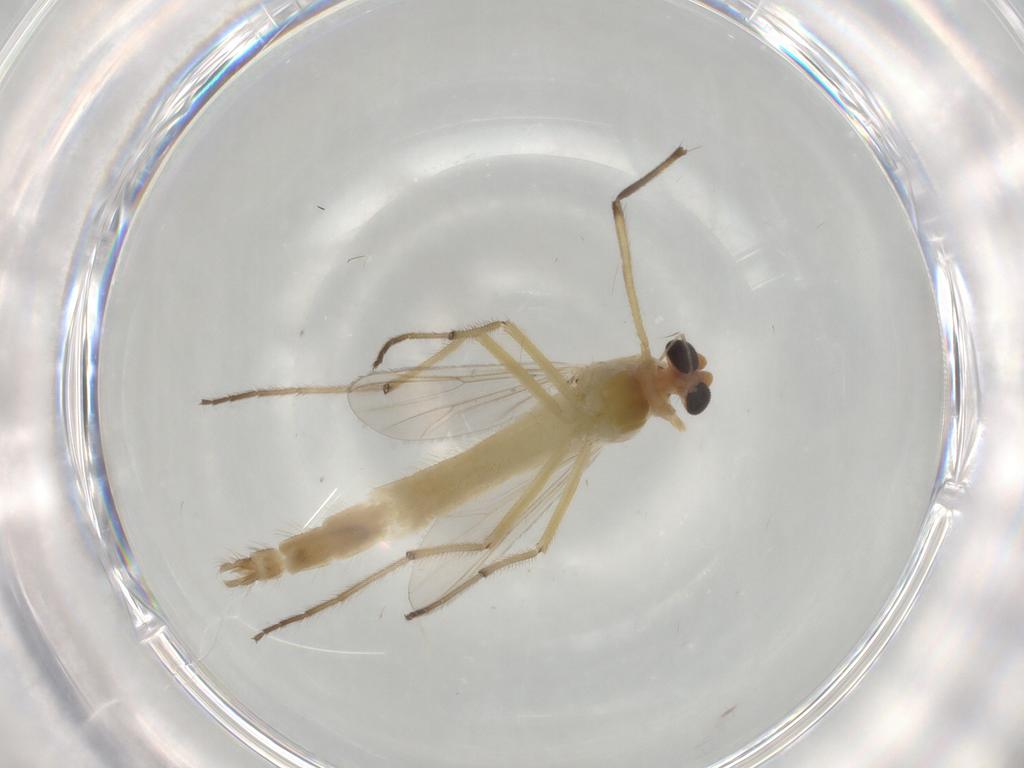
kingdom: Animalia
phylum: Arthropoda
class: Insecta
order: Diptera
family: Chironomidae
